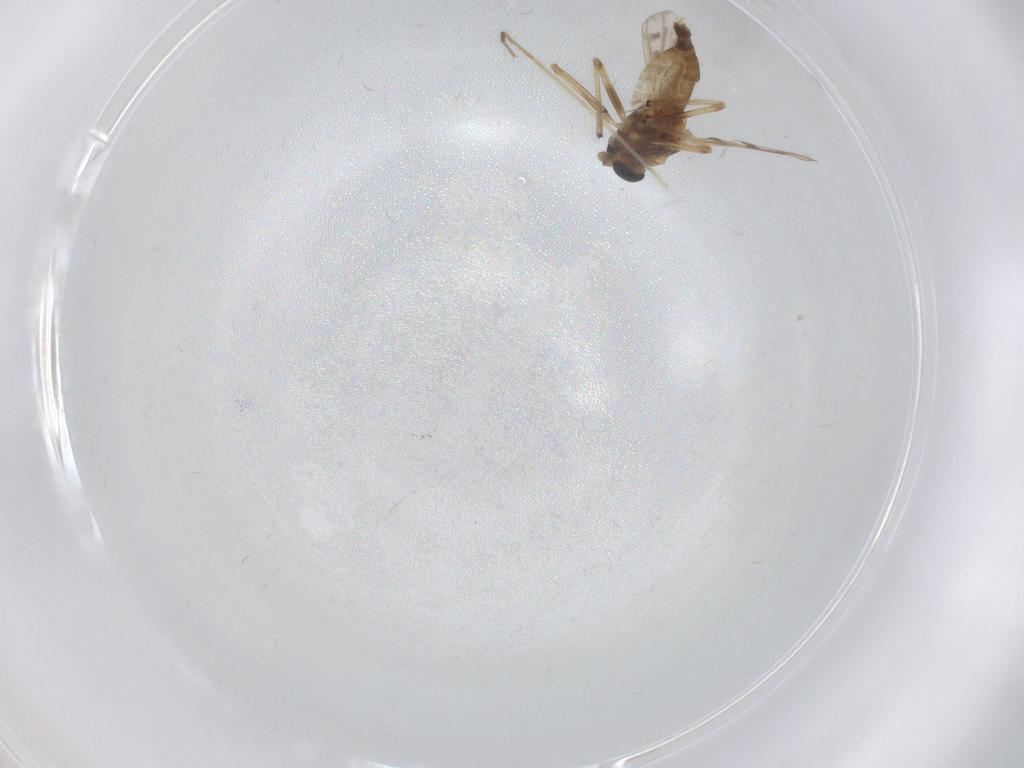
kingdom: Animalia
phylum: Arthropoda
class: Insecta
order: Diptera
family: Chironomidae
